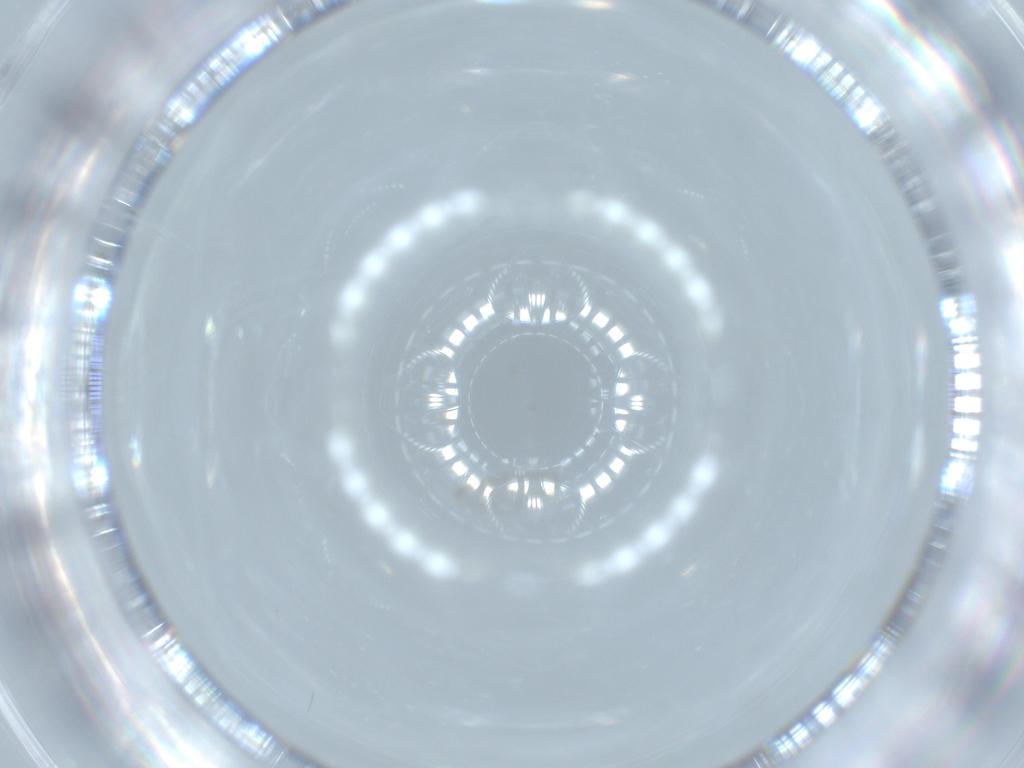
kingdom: Animalia
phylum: Arthropoda
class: Insecta
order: Diptera
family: Cecidomyiidae
